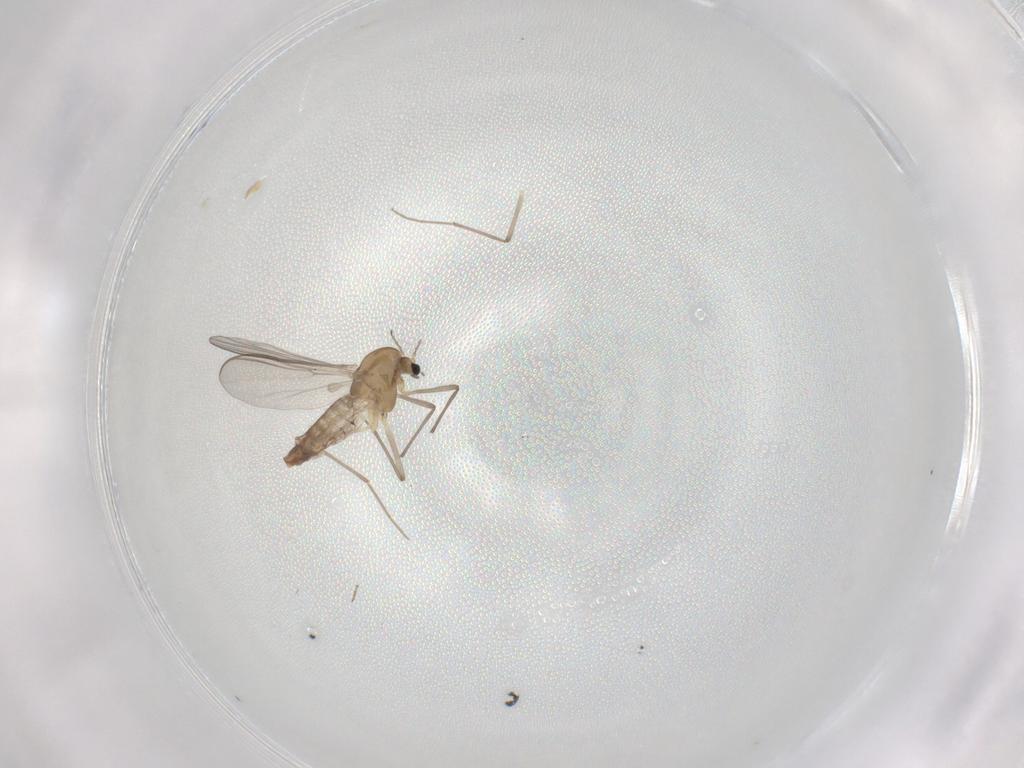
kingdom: Animalia
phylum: Arthropoda
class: Insecta
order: Diptera
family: Chironomidae
